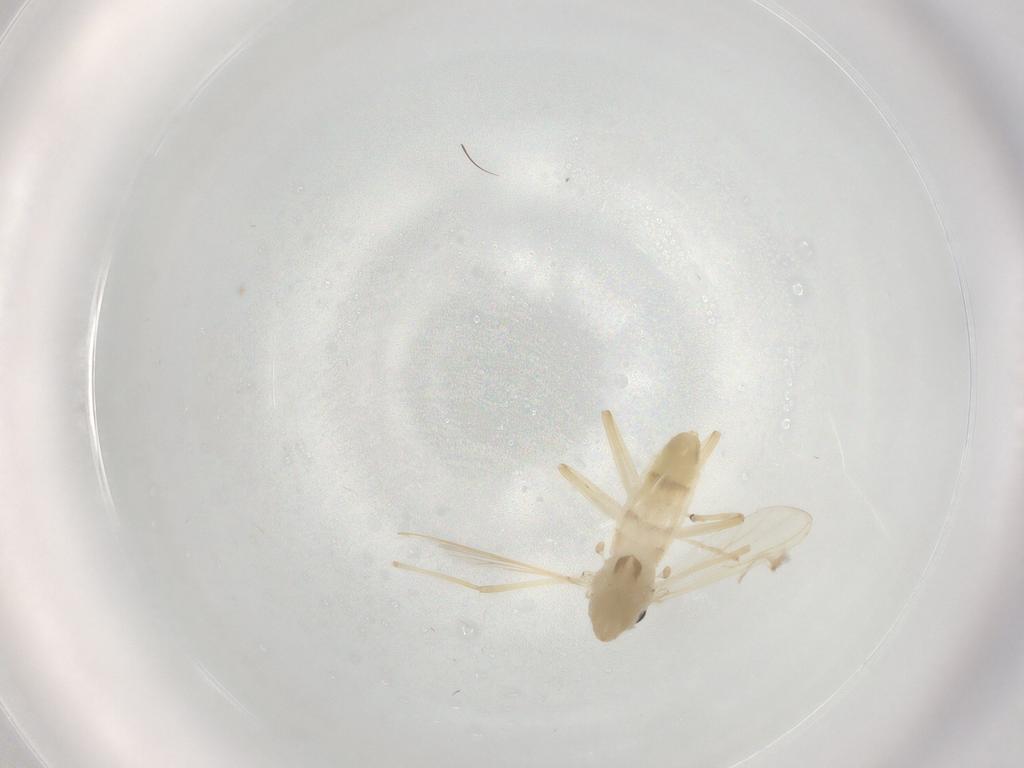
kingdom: Animalia
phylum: Arthropoda
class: Insecta
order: Diptera
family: Chironomidae
